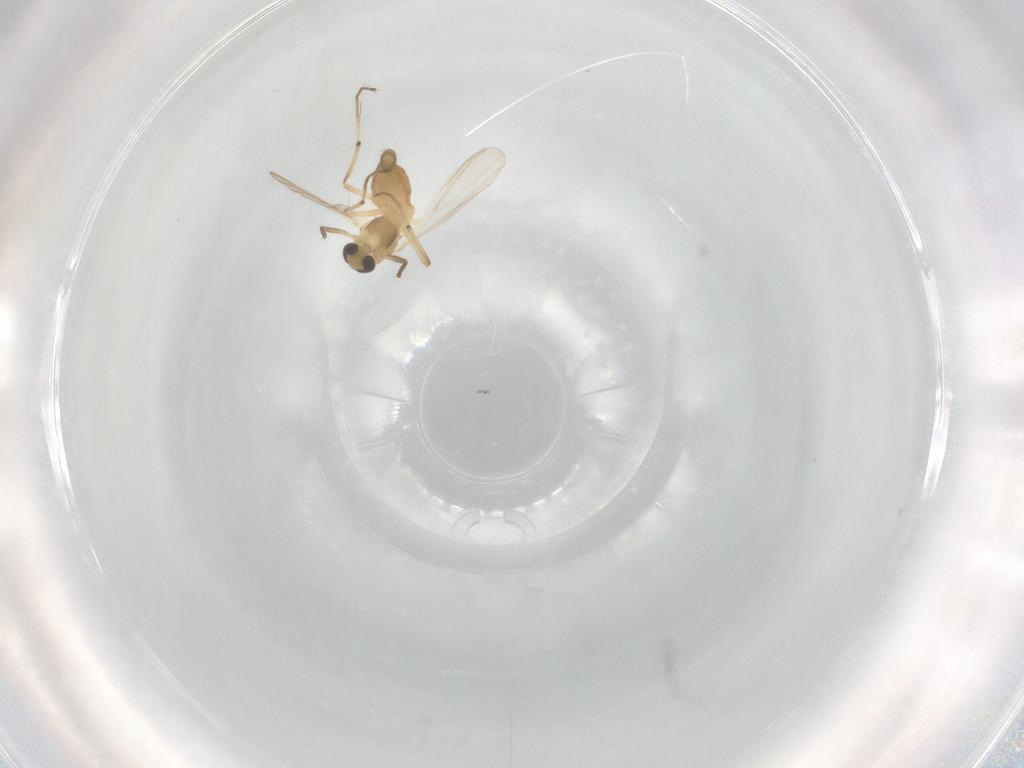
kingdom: Animalia
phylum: Arthropoda
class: Insecta
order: Diptera
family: Chironomidae
